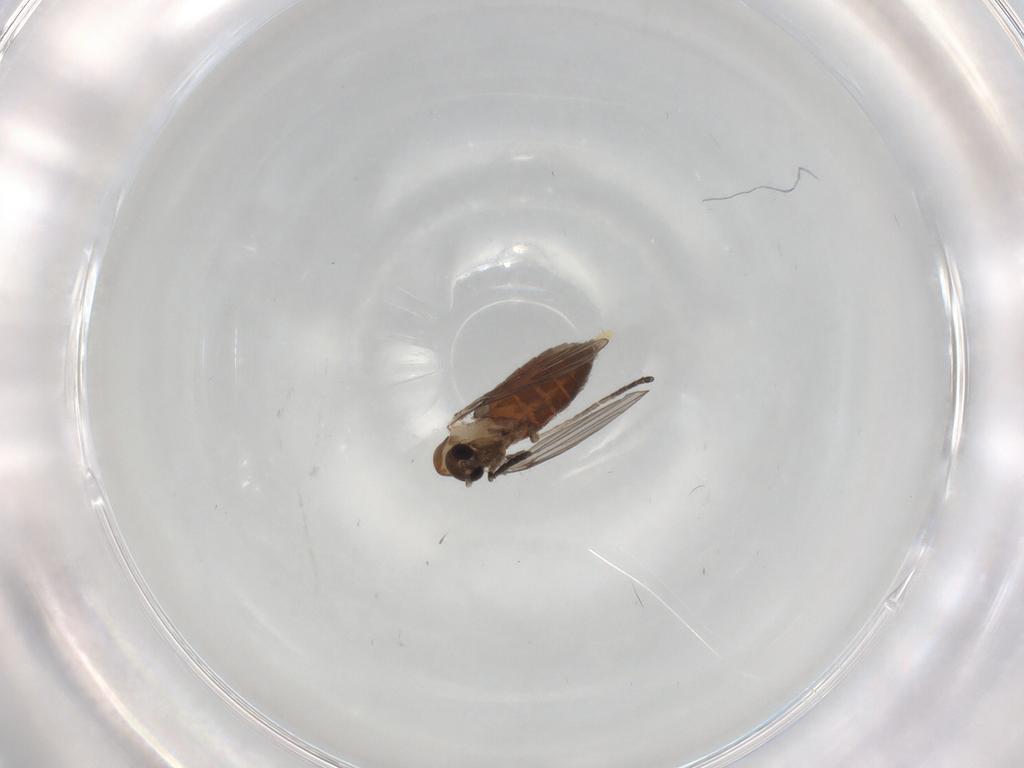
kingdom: Animalia
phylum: Arthropoda
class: Insecta
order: Diptera
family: Psychodidae
